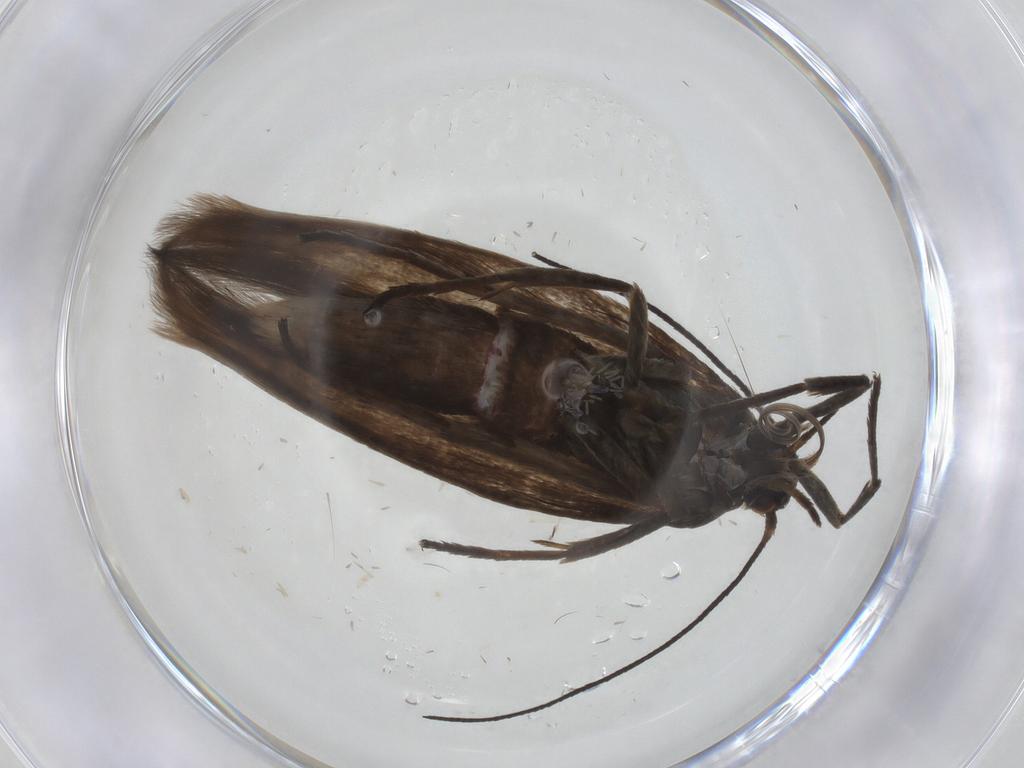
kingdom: Animalia
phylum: Arthropoda
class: Insecta
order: Lepidoptera
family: Scythrididae
